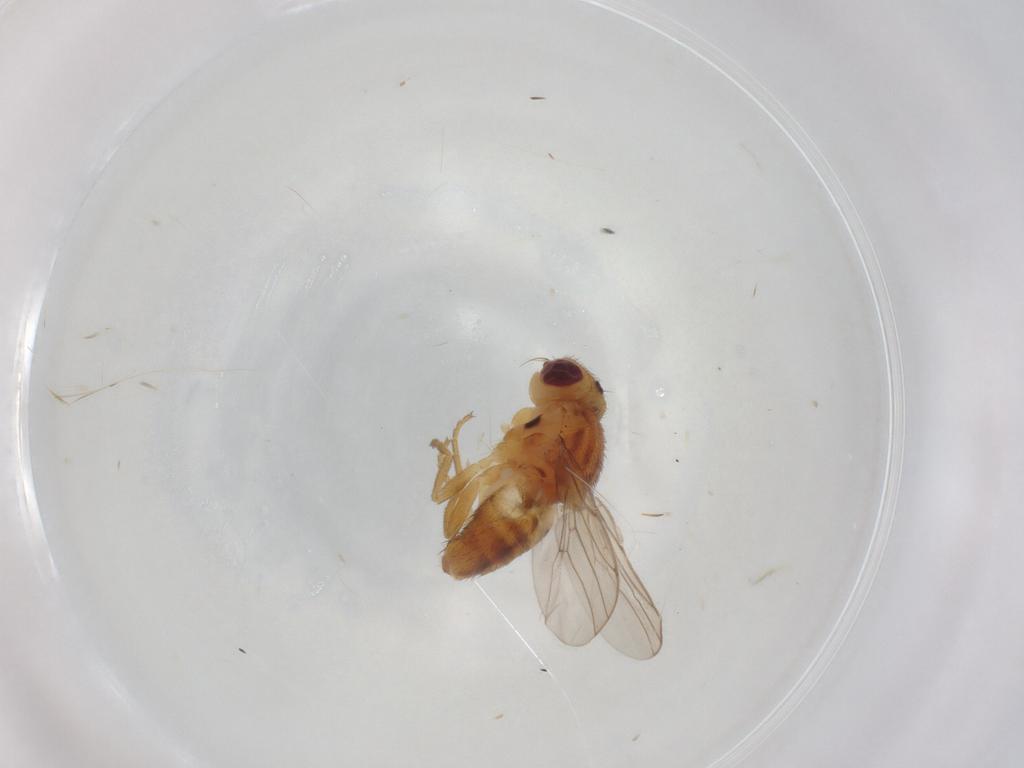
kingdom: Animalia
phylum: Arthropoda
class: Insecta
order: Diptera
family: Chloropidae
